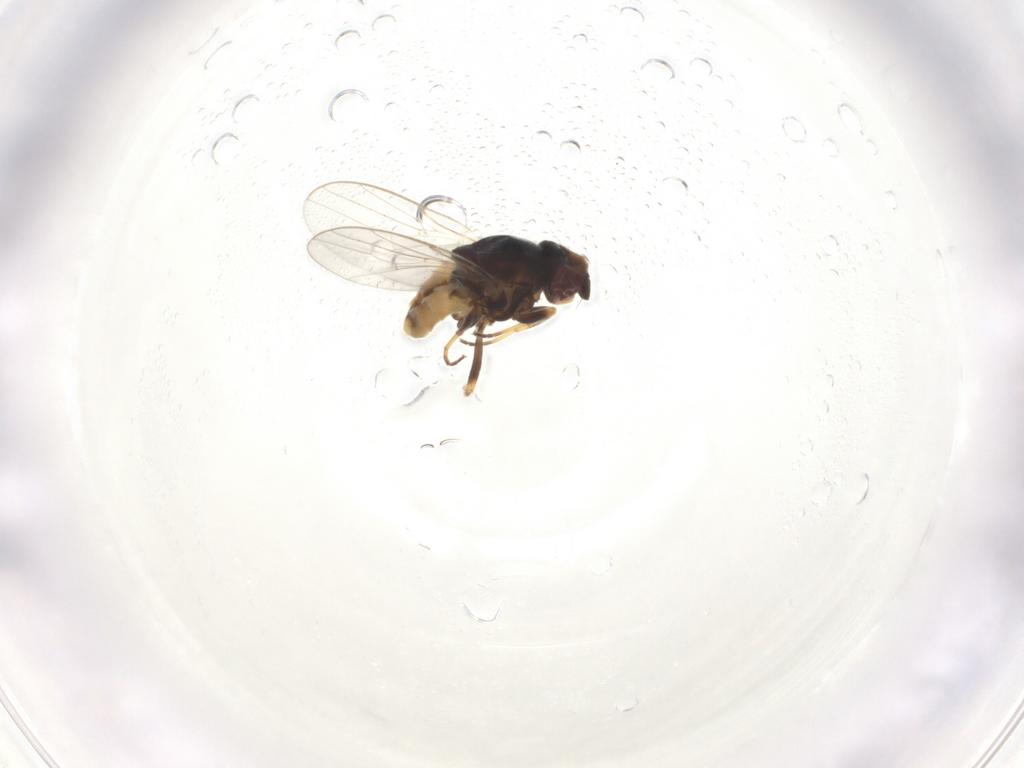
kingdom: Animalia
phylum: Arthropoda
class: Insecta
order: Diptera
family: Chloropidae
